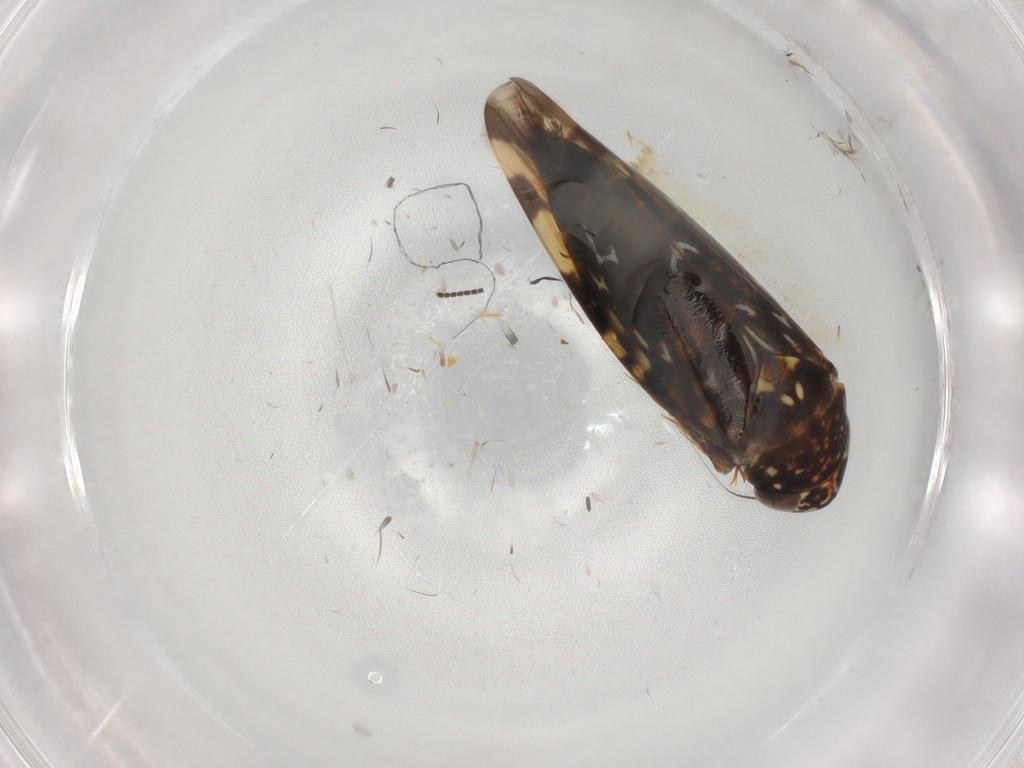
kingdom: Animalia
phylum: Arthropoda
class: Insecta
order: Hemiptera
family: Cicadellidae
